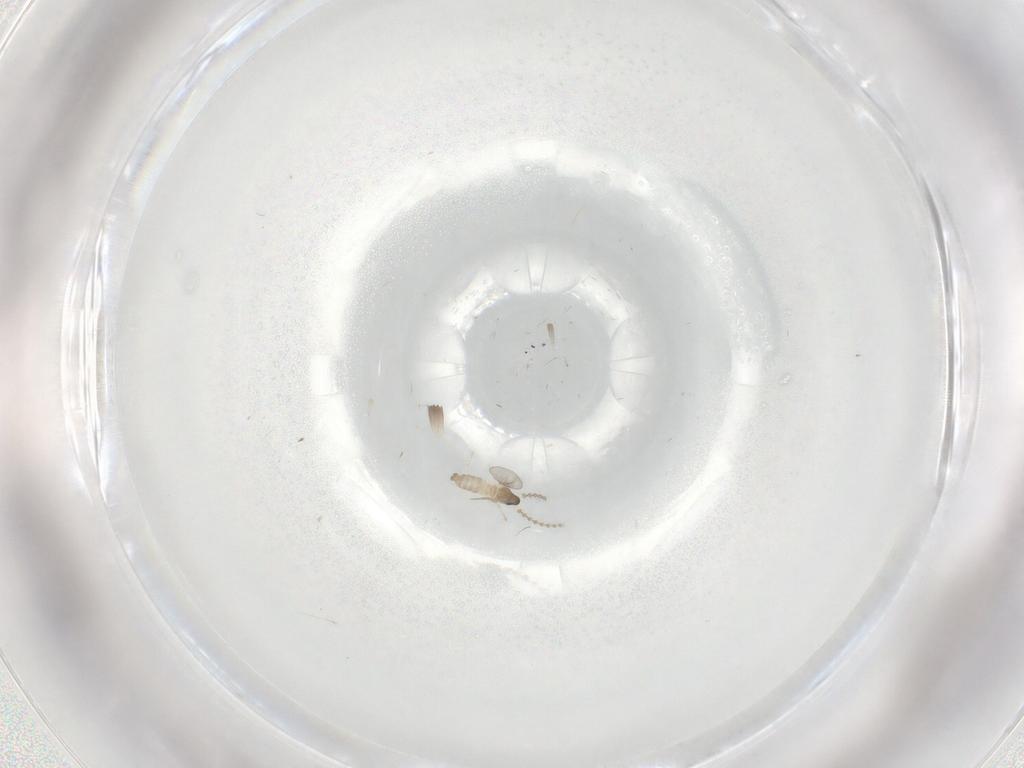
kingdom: Animalia
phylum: Arthropoda
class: Insecta
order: Diptera
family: Cecidomyiidae
